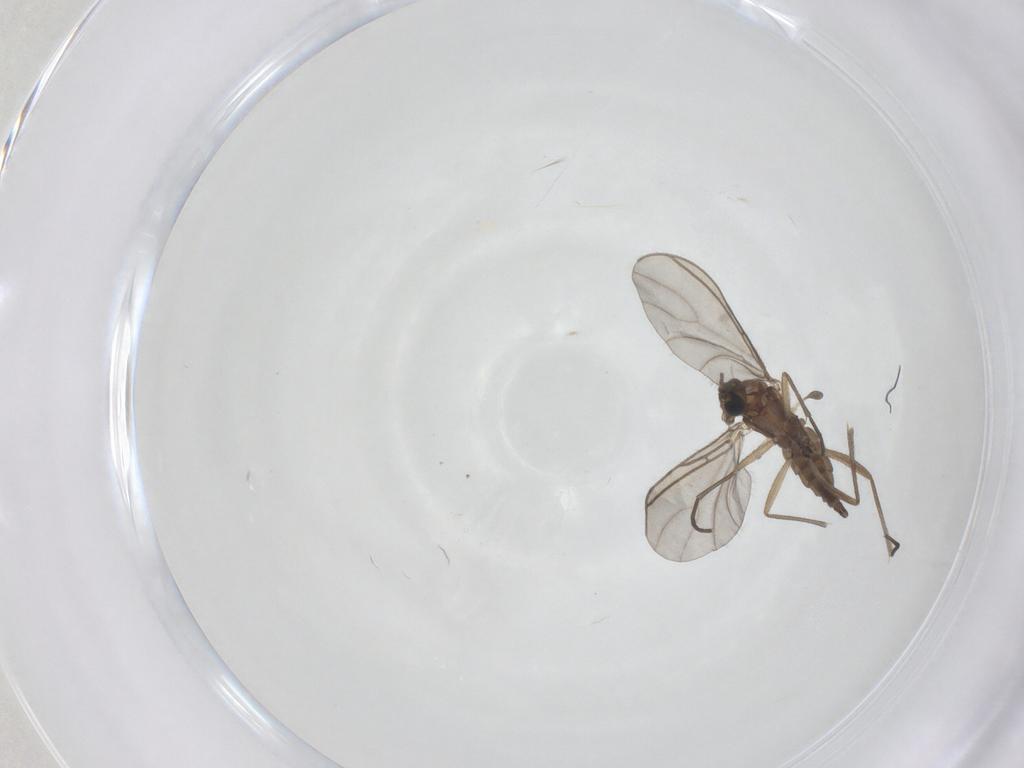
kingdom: Animalia
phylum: Arthropoda
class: Insecta
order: Diptera
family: Sciaridae
